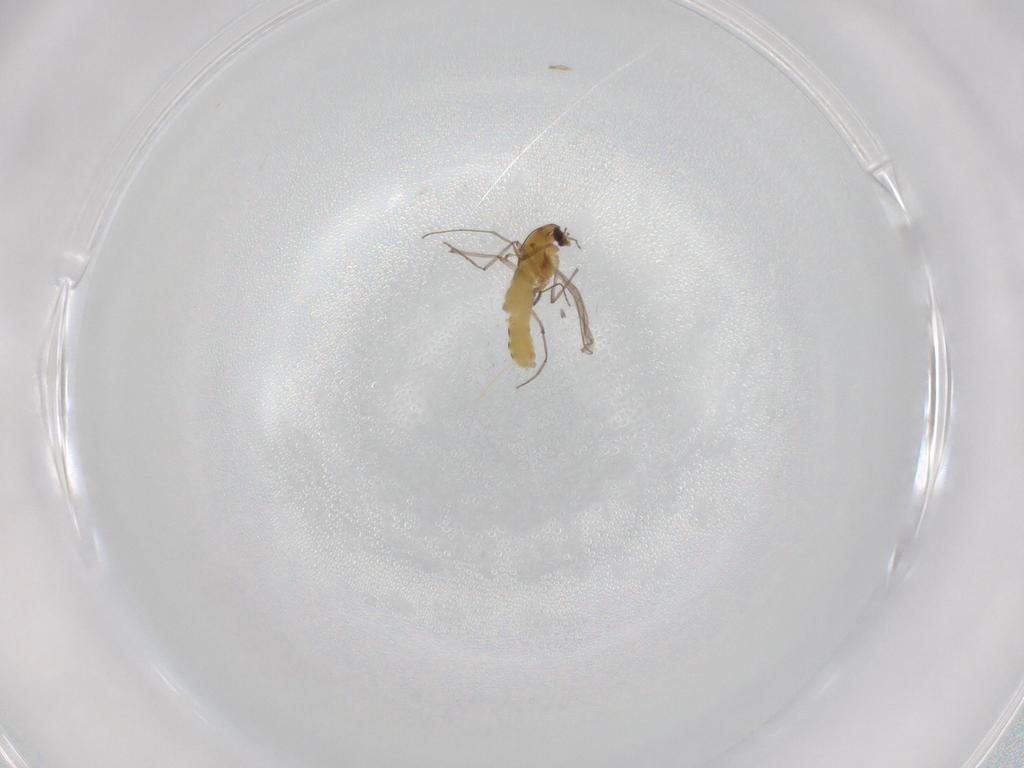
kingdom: Animalia
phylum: Arthropoda
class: Insecta
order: Diptera
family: Chironomidae
